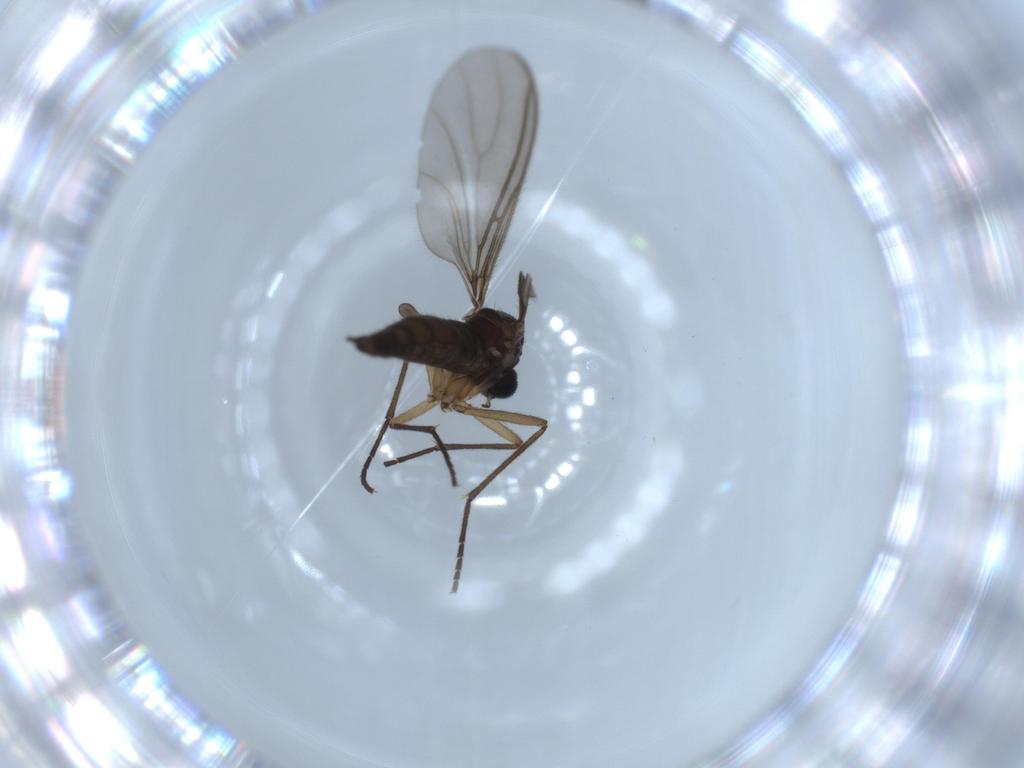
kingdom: Animalia
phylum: Arthropoda
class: Insecta
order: Diptera
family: Sciaridae
